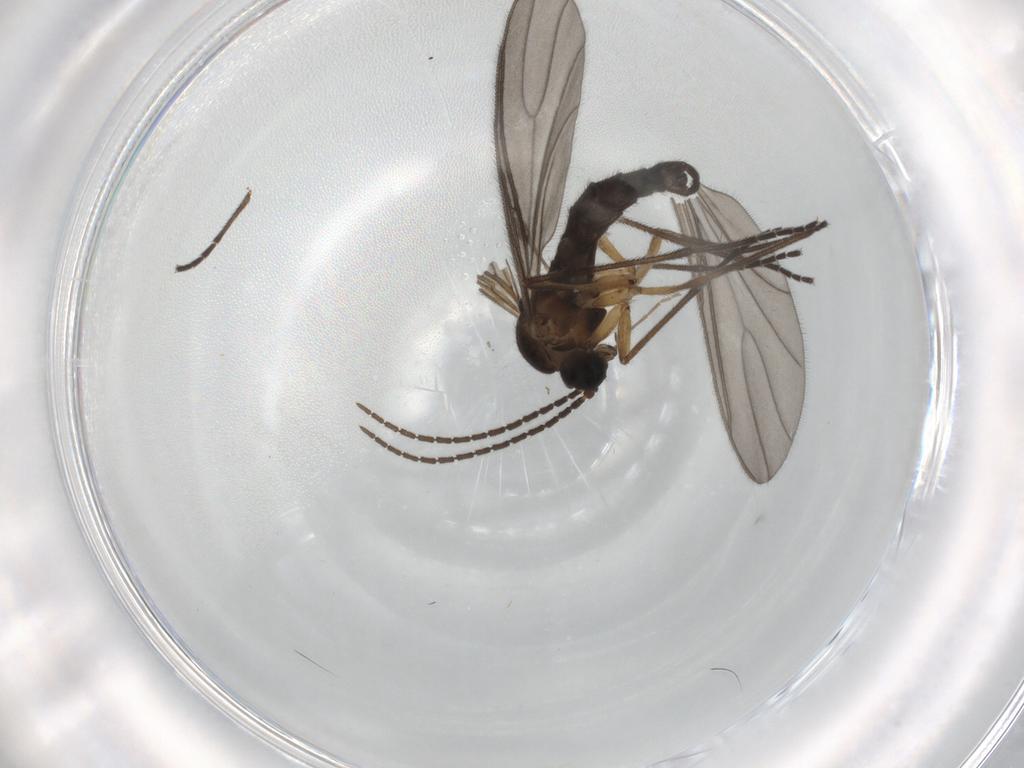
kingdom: Animalia
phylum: Arthropoda
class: Insecta
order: Diptera
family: Sciaridae
